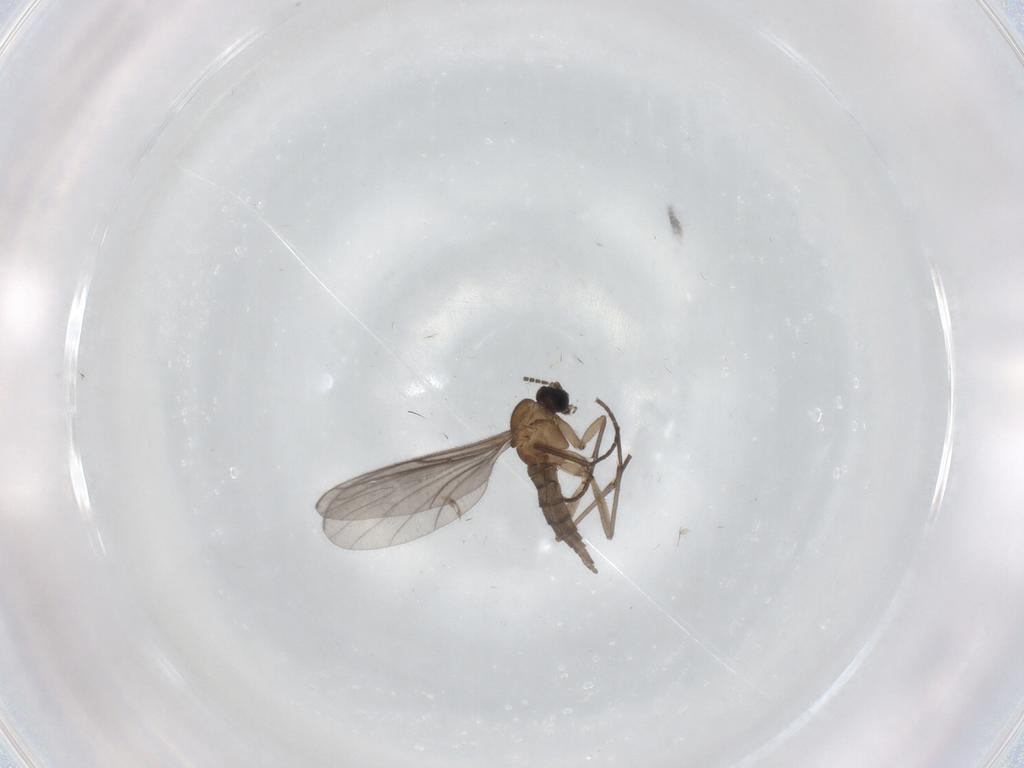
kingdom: Animalia
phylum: Arthropoda
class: Insecta
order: Diptera
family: Sciaridae
